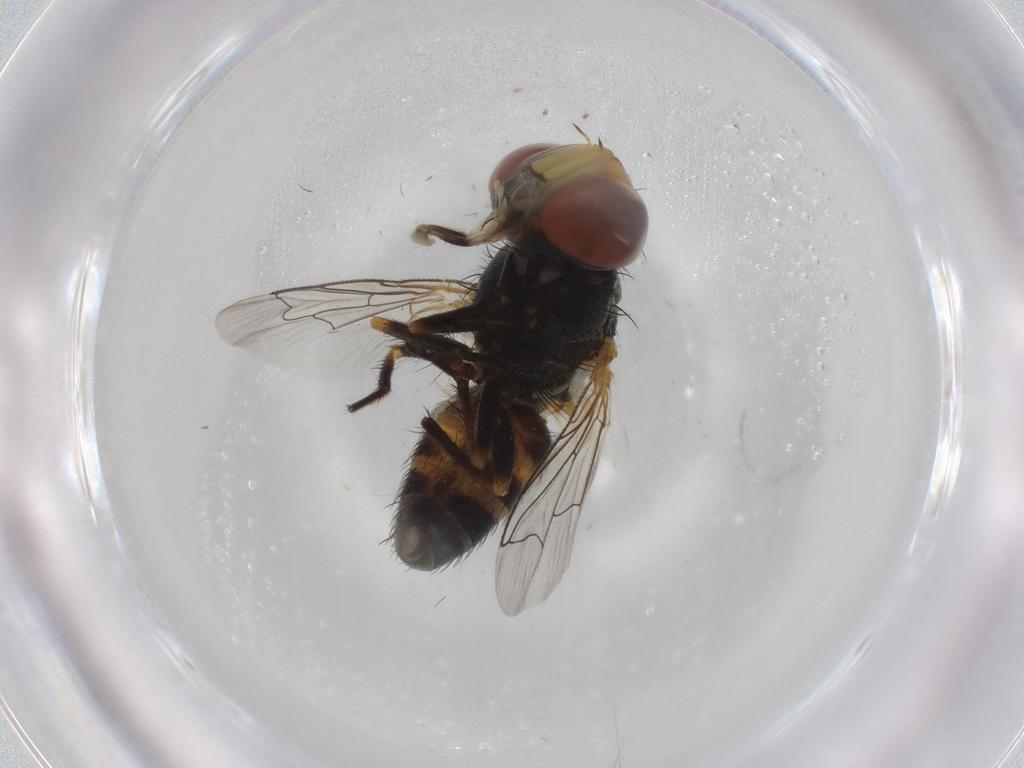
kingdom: Animalia
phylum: Arthropoda
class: Insecta
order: Diptera
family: Sarcophagidae
